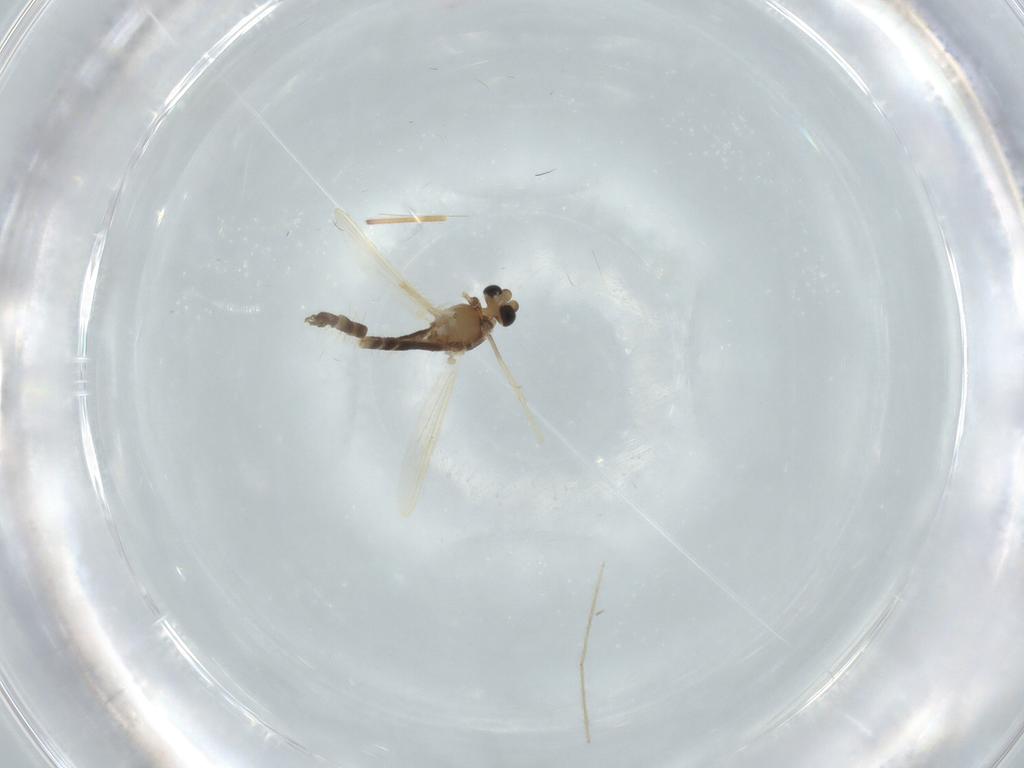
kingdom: Animalia
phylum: Arthropoda
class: Insecta
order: Diptera
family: Chironomidae
